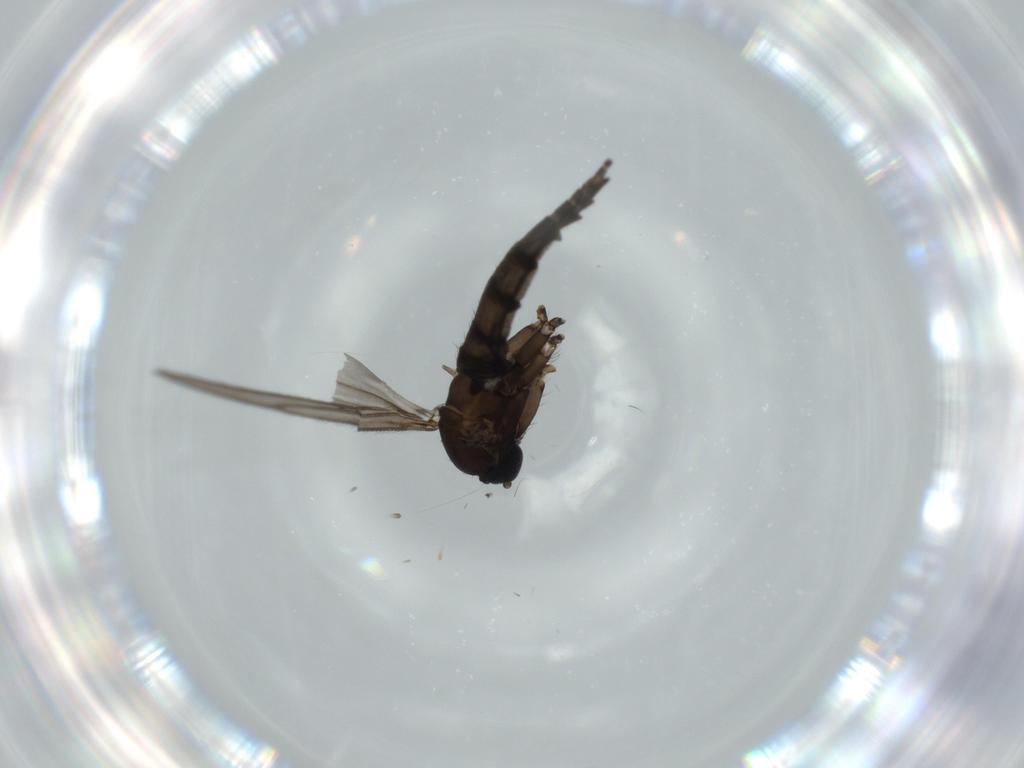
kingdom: Animalia
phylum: Arthropoda
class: Insecta
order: Diptera
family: Sciaridae
